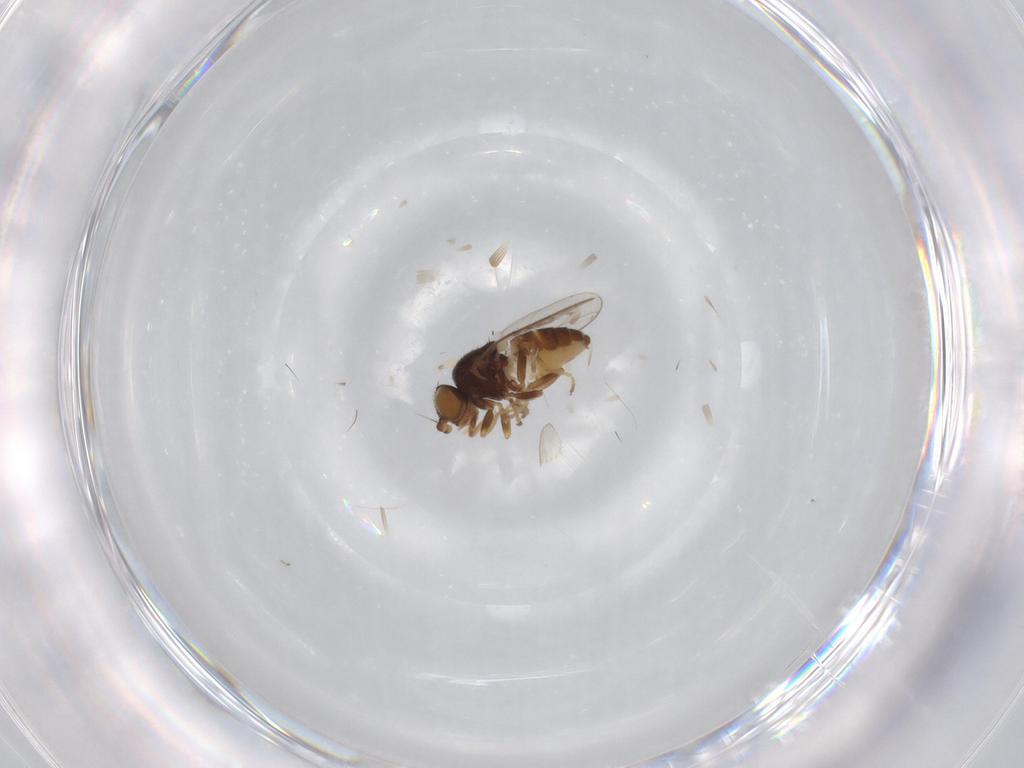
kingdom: Animalia
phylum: Arthropoda
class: Insecta
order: Diptera
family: Chloropidae
